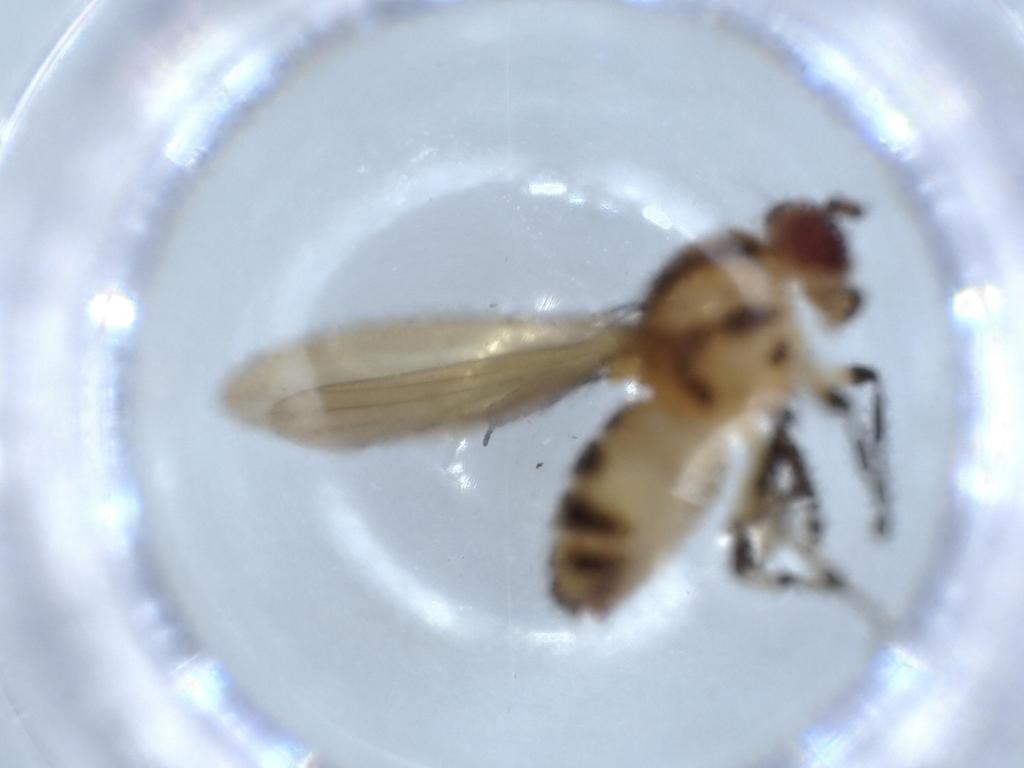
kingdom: Animalia
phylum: Arthropoda
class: Insecta
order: Diptera
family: Lauxaniidae
